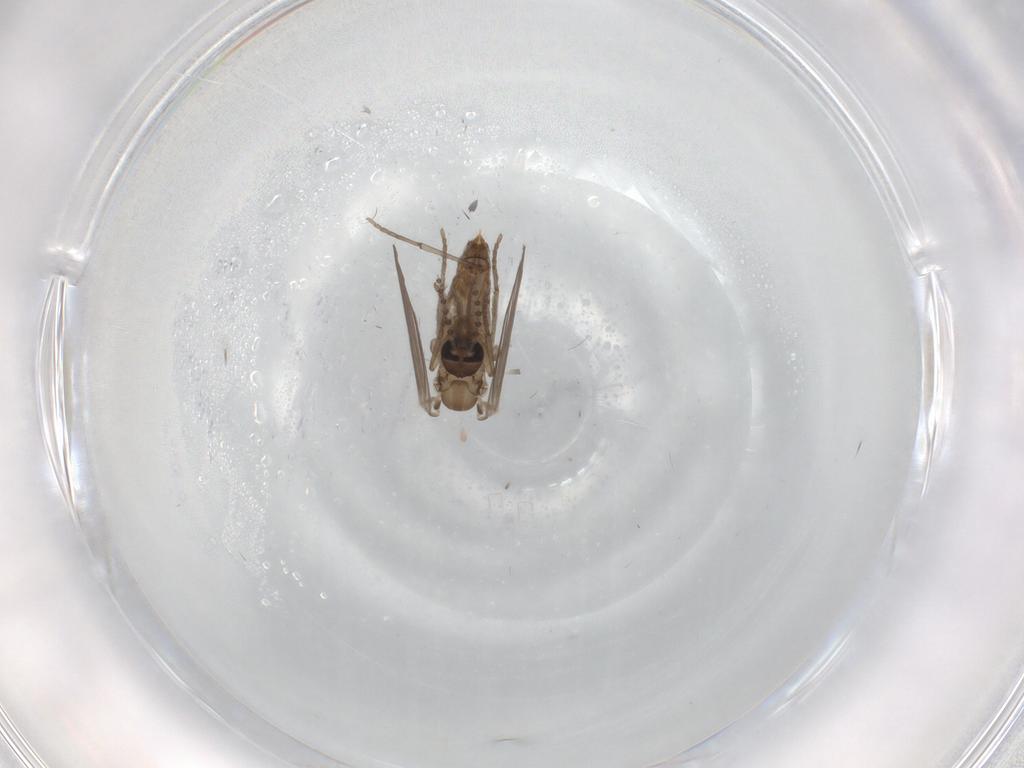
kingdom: Animalia
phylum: Arthropoda
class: Insecta
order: Diptera
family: Psychodidae
